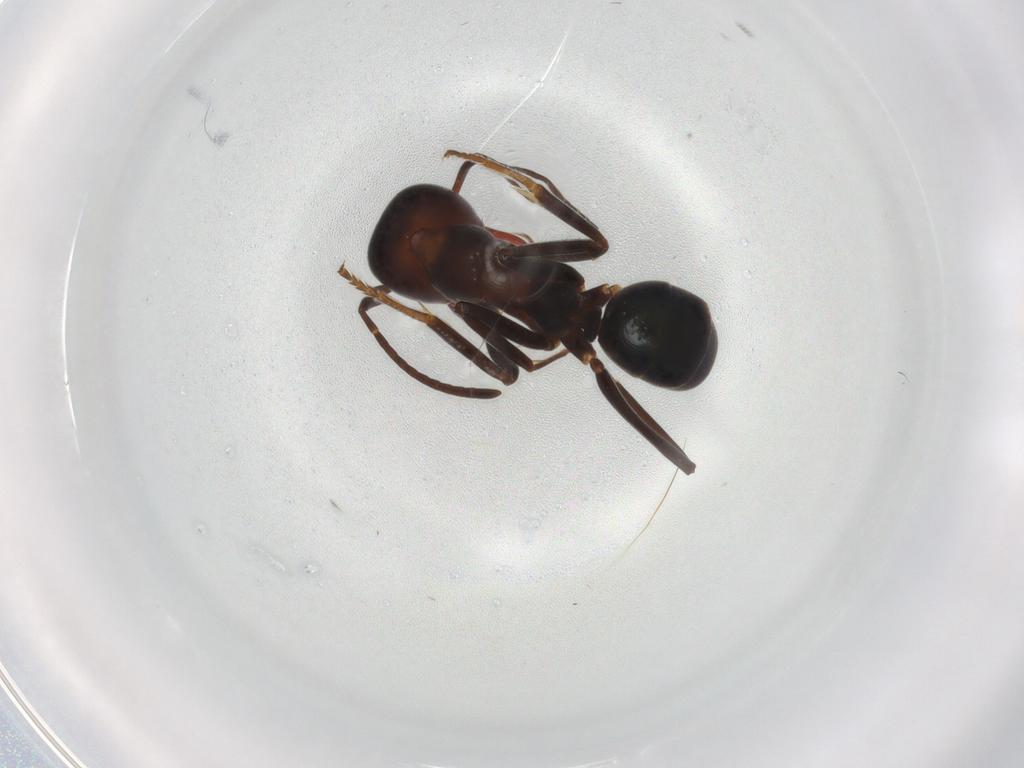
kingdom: Animalia
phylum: Arthropoda
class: Insecta
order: Hymenoptera
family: Formicidae
